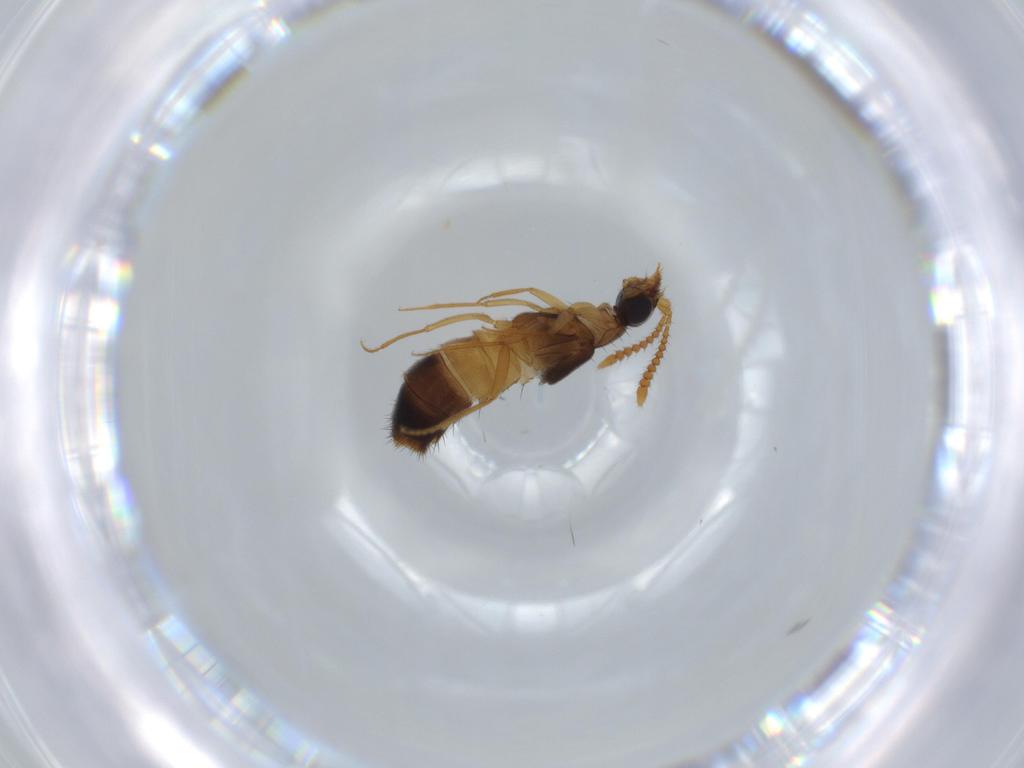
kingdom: Animalia
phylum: Arthropoda
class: Insecta
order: Coleoptera
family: Staphylinidae
